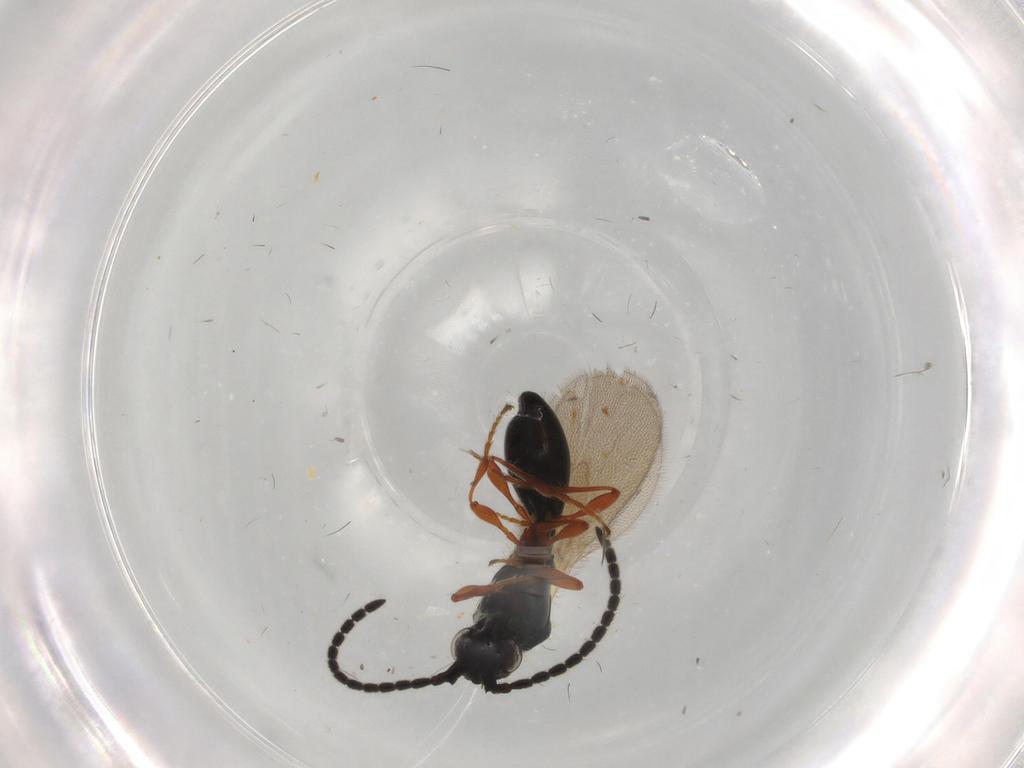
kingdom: Animalia
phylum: Arthropoda
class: Insecta
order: Hymenoptera
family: Diapriidae
